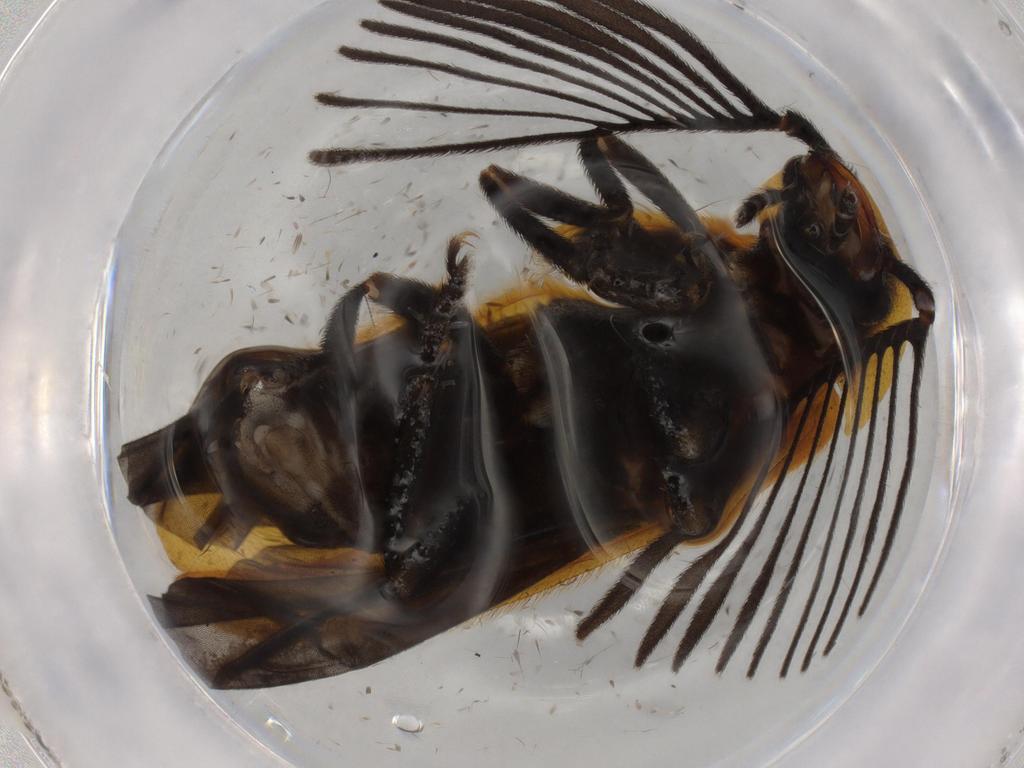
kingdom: Animalia
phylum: Arthropoda
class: Insecta
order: Coleoptera
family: Lampyridae
